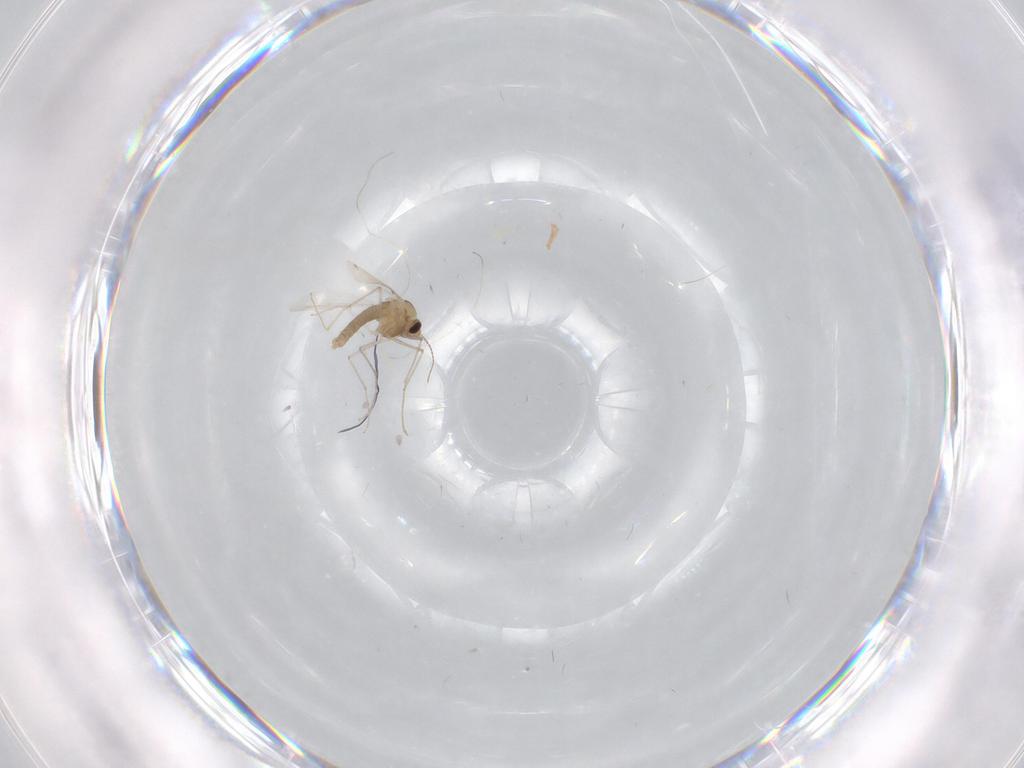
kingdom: Animalia
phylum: Arthropoda
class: Insecta
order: Diptera
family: Chironomidae
